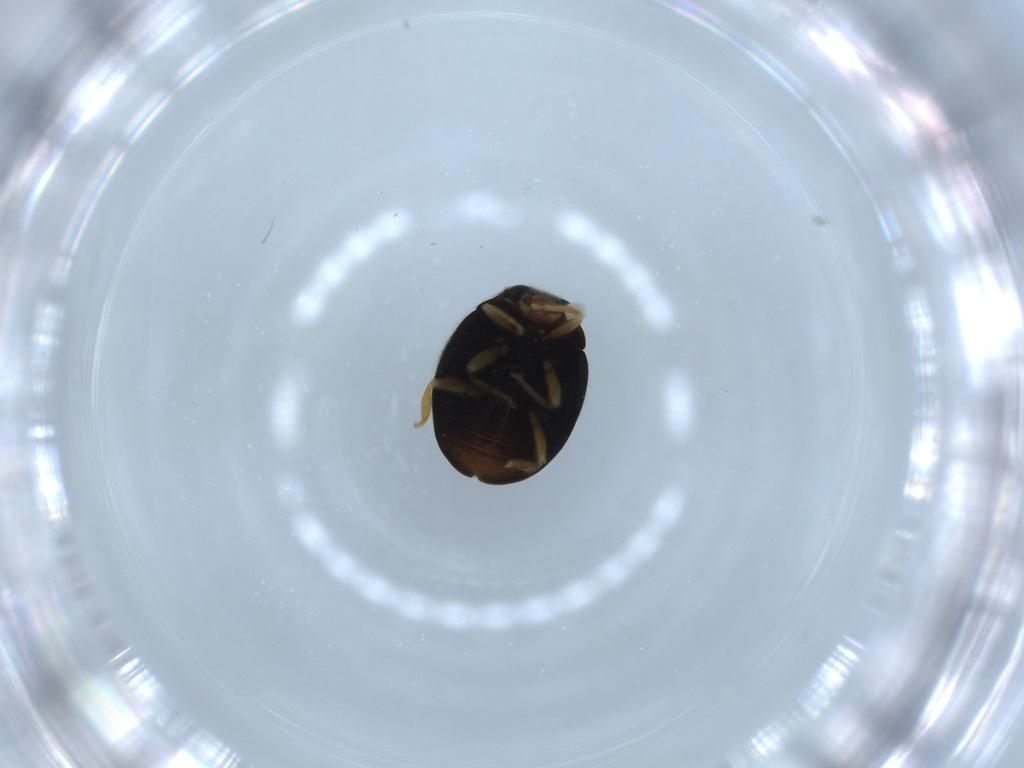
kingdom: Animalia
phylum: Arthropoda
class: Insecta
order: Coleoptera
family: Coccinellidae
